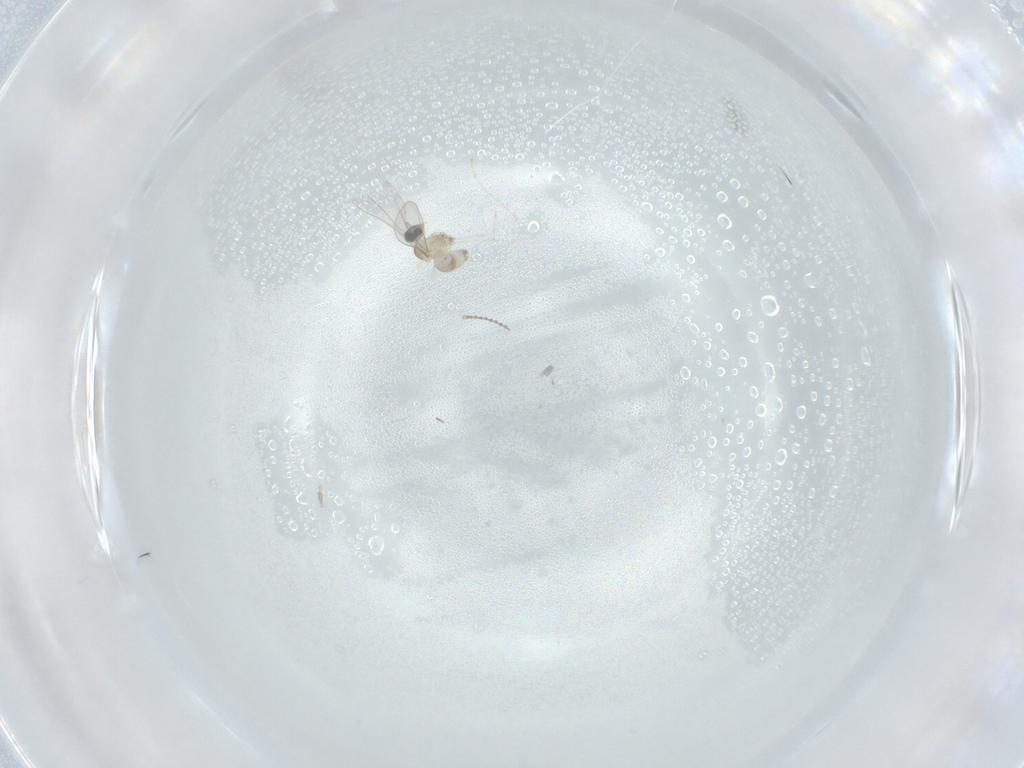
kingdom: Animalia
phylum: Arthropoda
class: Insecta
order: Diptera
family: Cecidomyiidae
